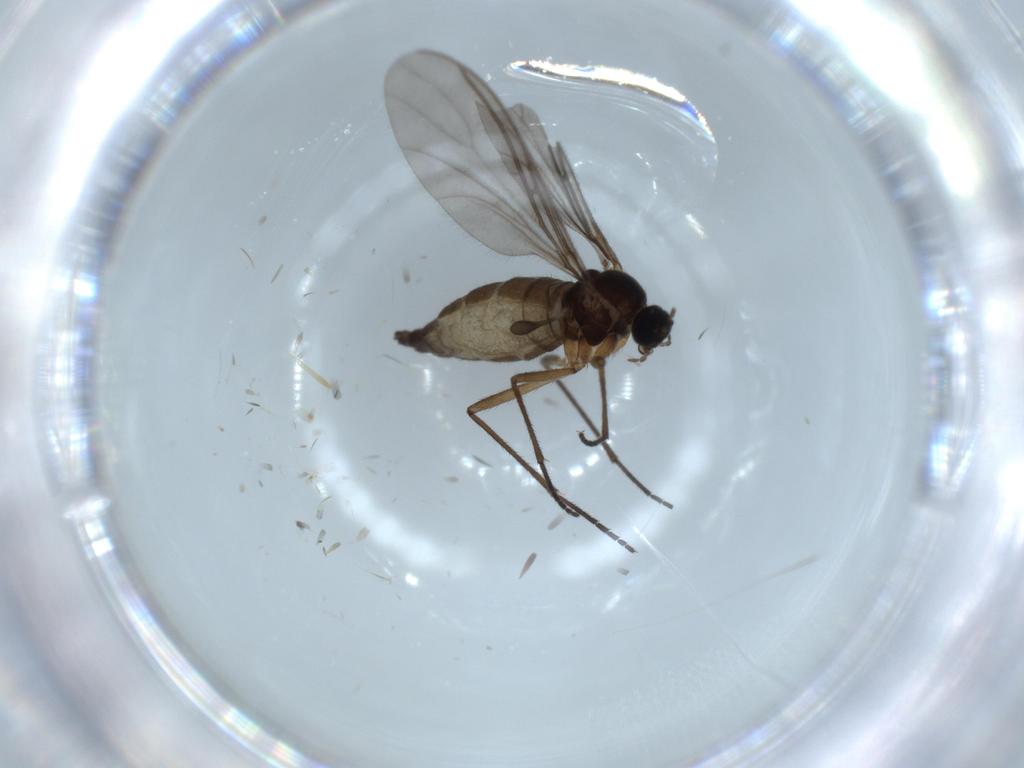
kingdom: Animalia
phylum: Arthropoda
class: Insecta
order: Diptera
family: Sciaridae
